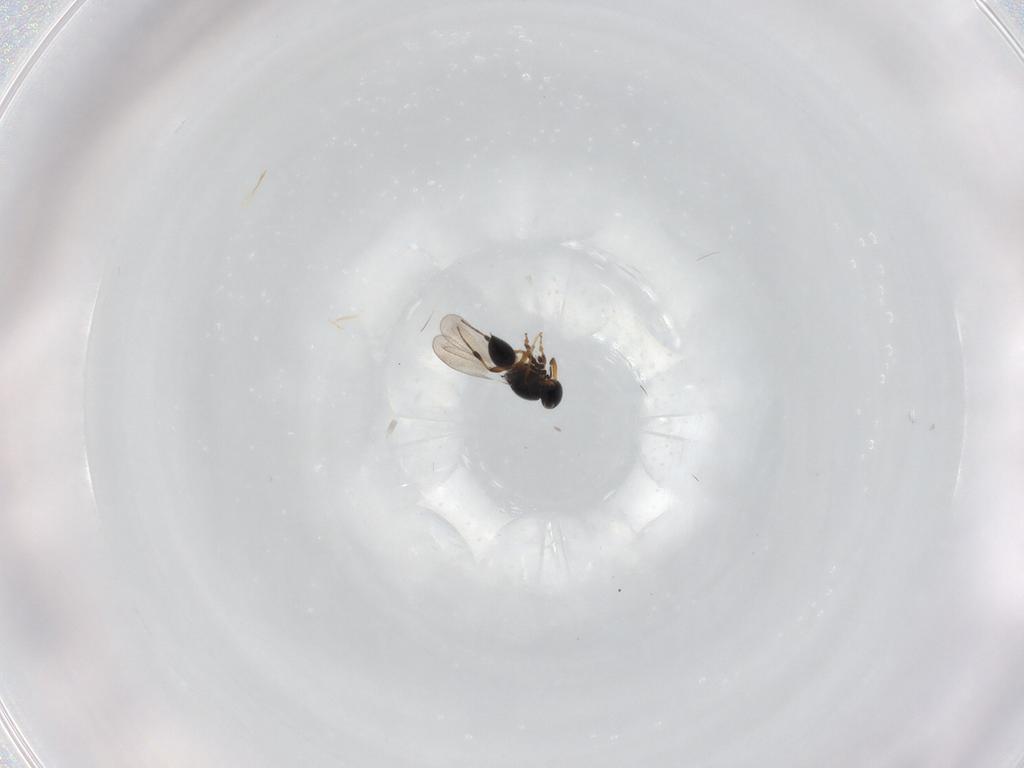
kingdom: Animalia
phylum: Arthropoda
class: Insecta
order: Hymenoptera
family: Platygastridae
